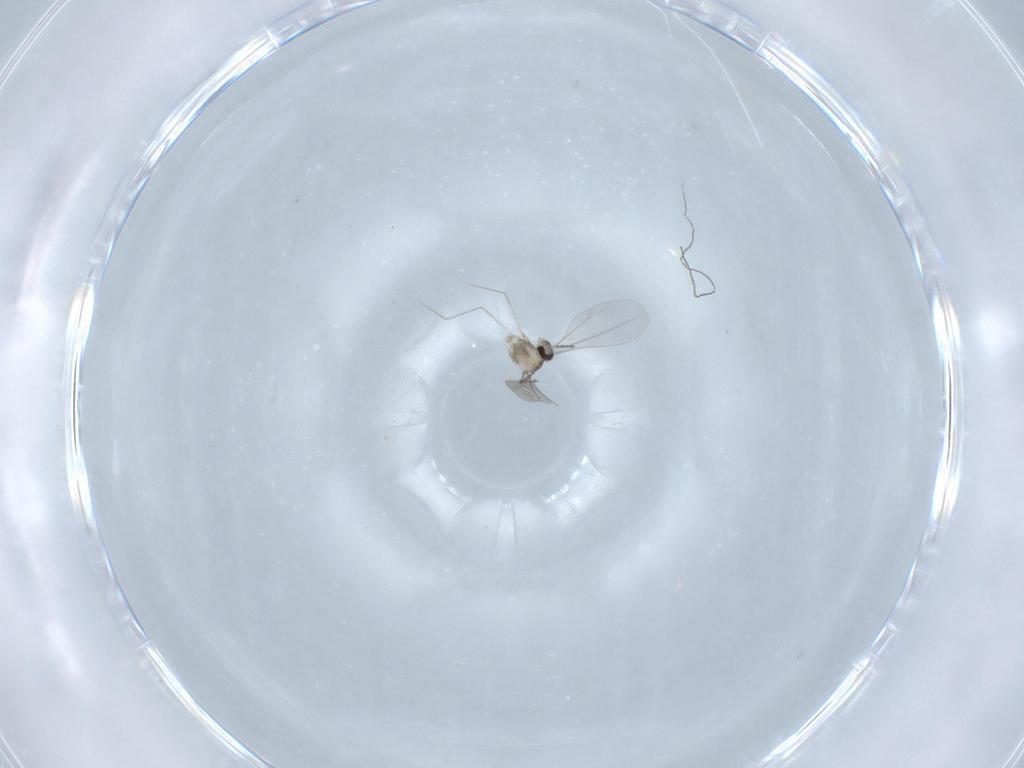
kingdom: Animalia
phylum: Arthropoda
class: Insecta
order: Diptera
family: Cecidomyiidae
